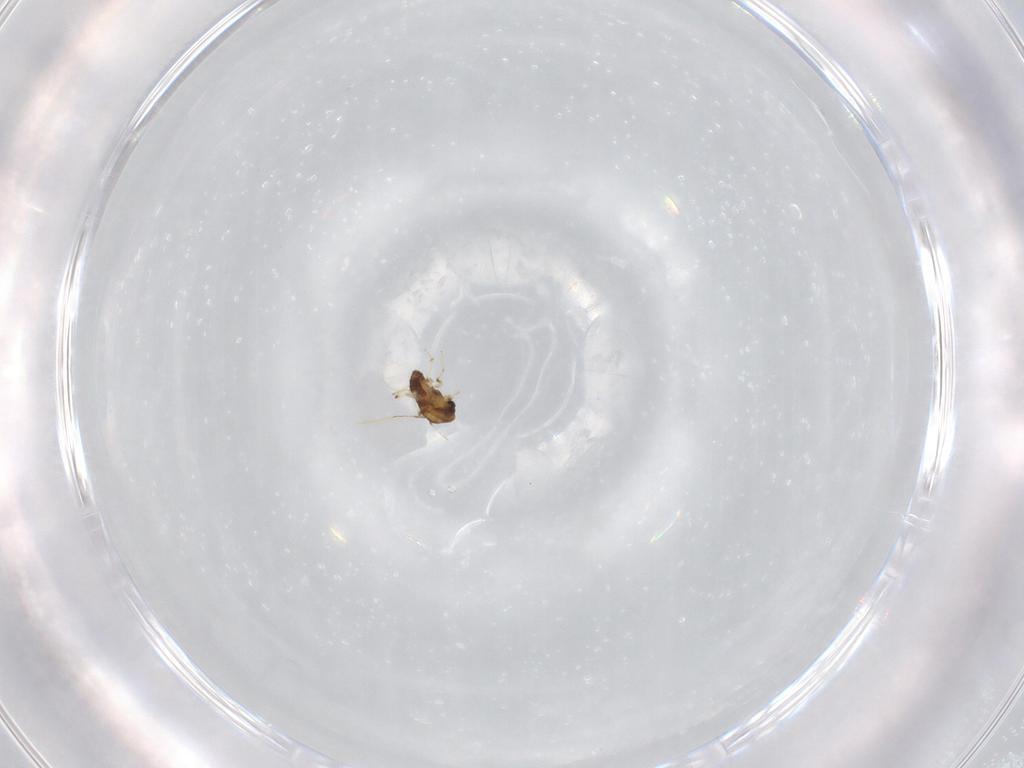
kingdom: Animalia
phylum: Arthropoda
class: Insecta
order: Diptera
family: Chironomidae
